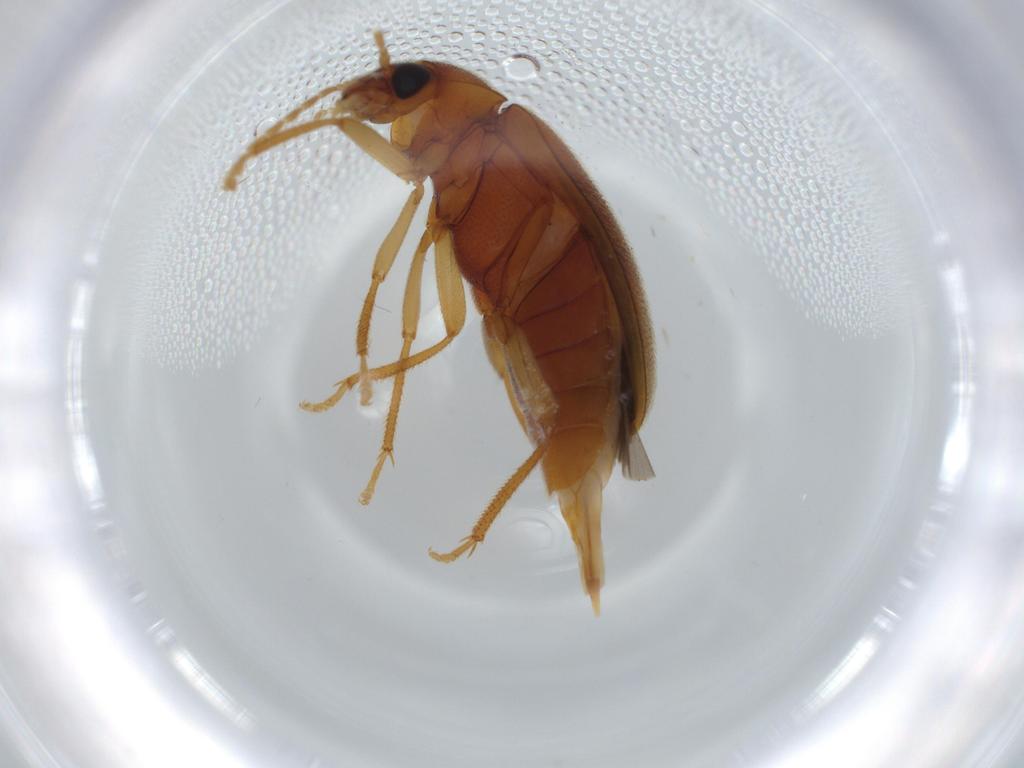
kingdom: Animalia
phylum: Arthropoda
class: Insecta
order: Coleoptera
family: Ptilodactylidae
